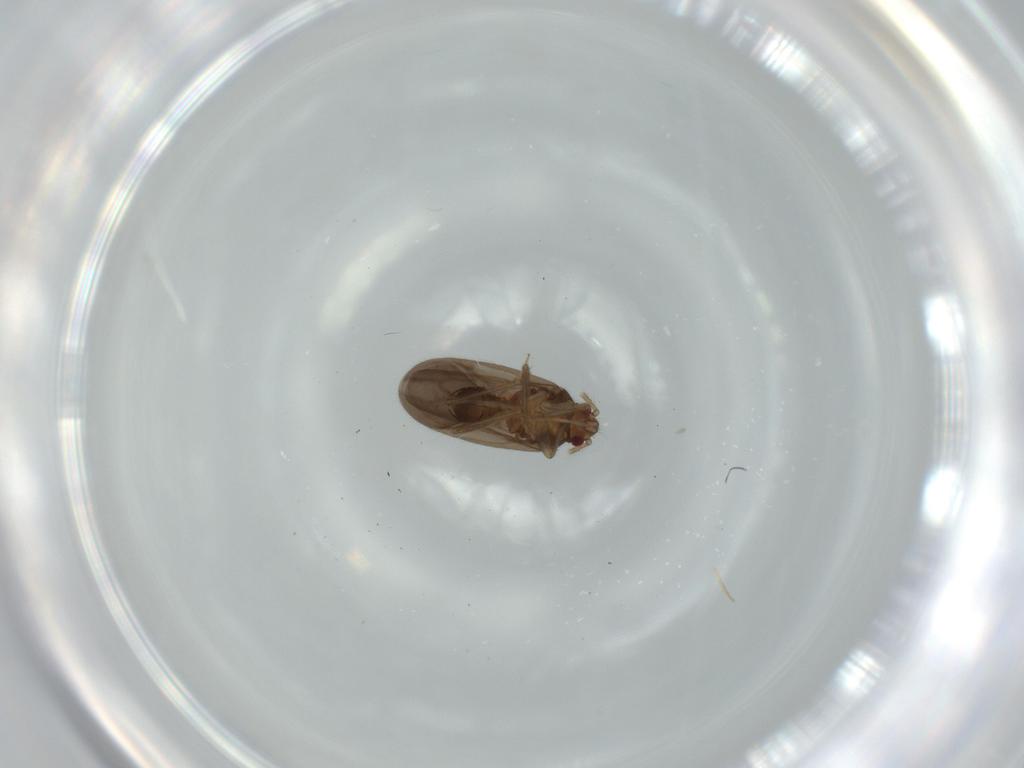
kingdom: Animalia
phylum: Arthropoda
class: Insecta
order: Hemiptera
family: Ceratocombidae
